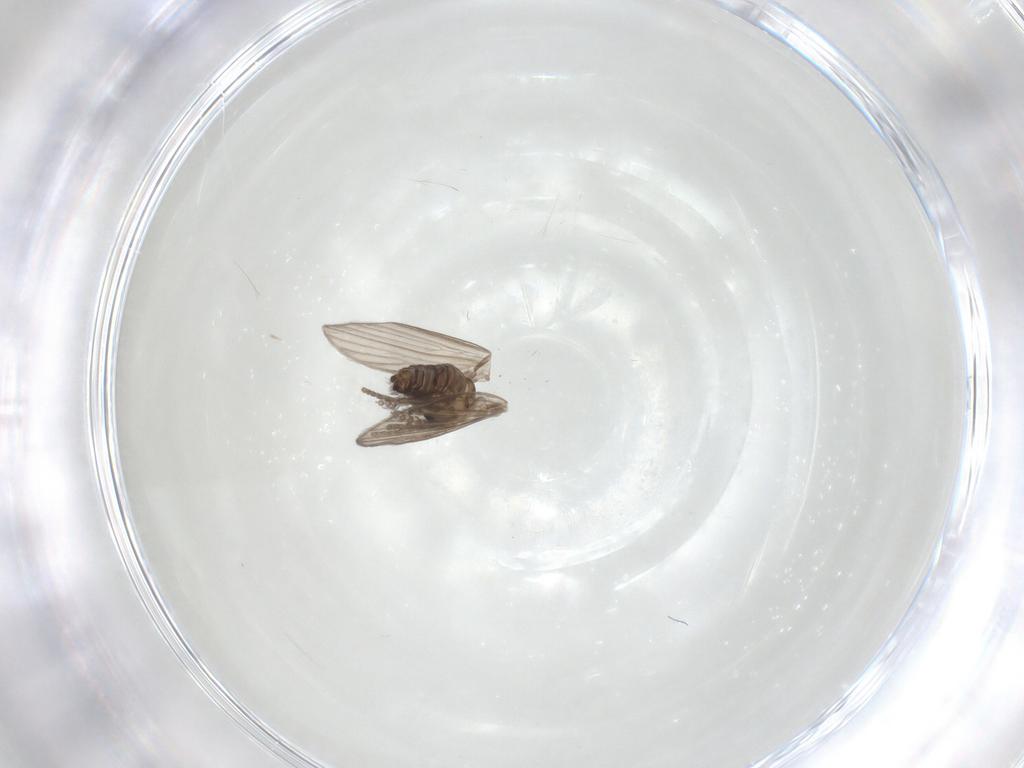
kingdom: Animalia
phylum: Arthropoda
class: Insecta
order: Diptera
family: Psychodidae
